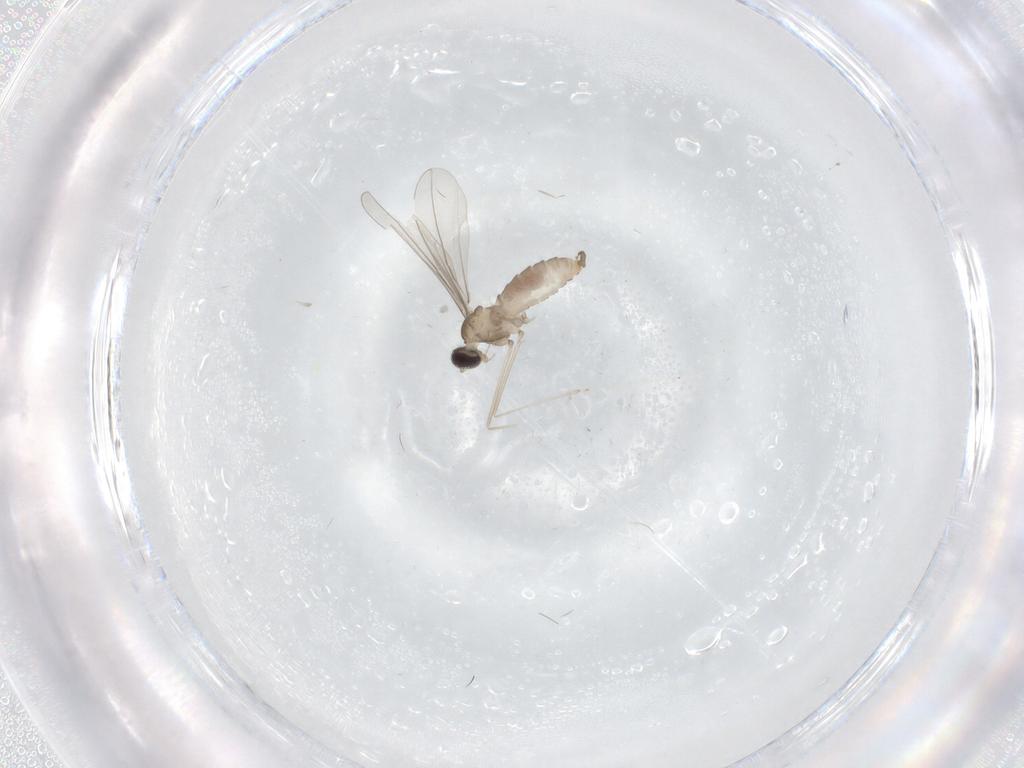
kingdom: Animalia
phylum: Arthropoda
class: Insecta
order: Diptera
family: Cecidomyiidae
